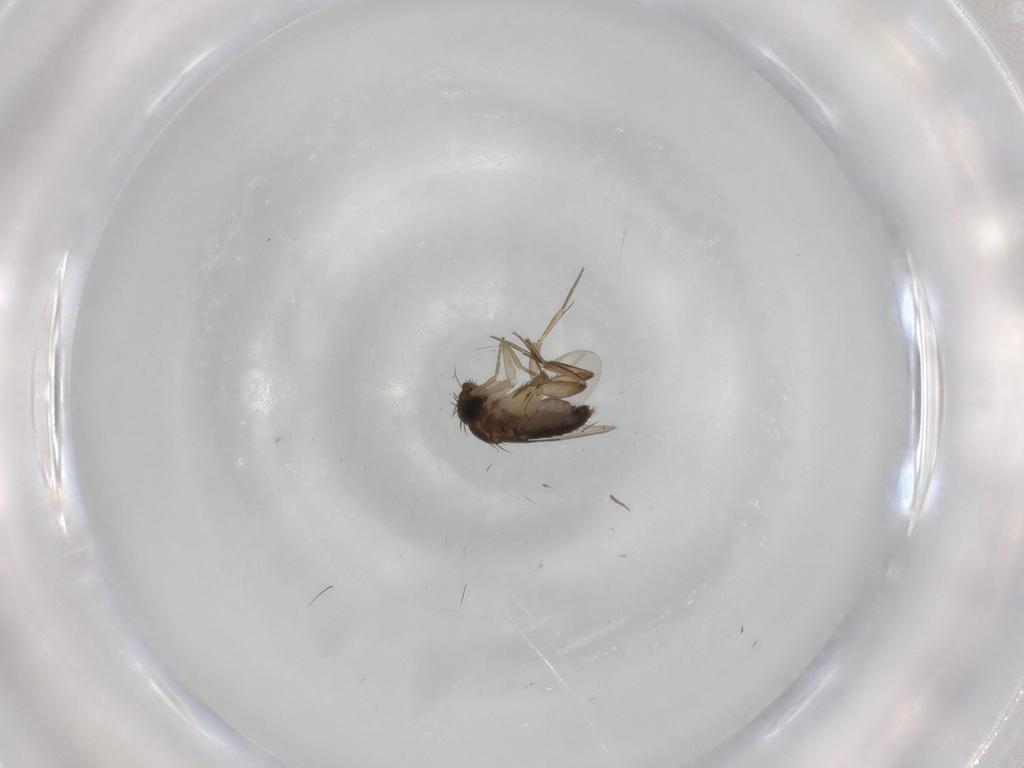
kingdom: Animalia
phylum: Arthropoda
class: Insecta
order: Diptera
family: Phoridae
